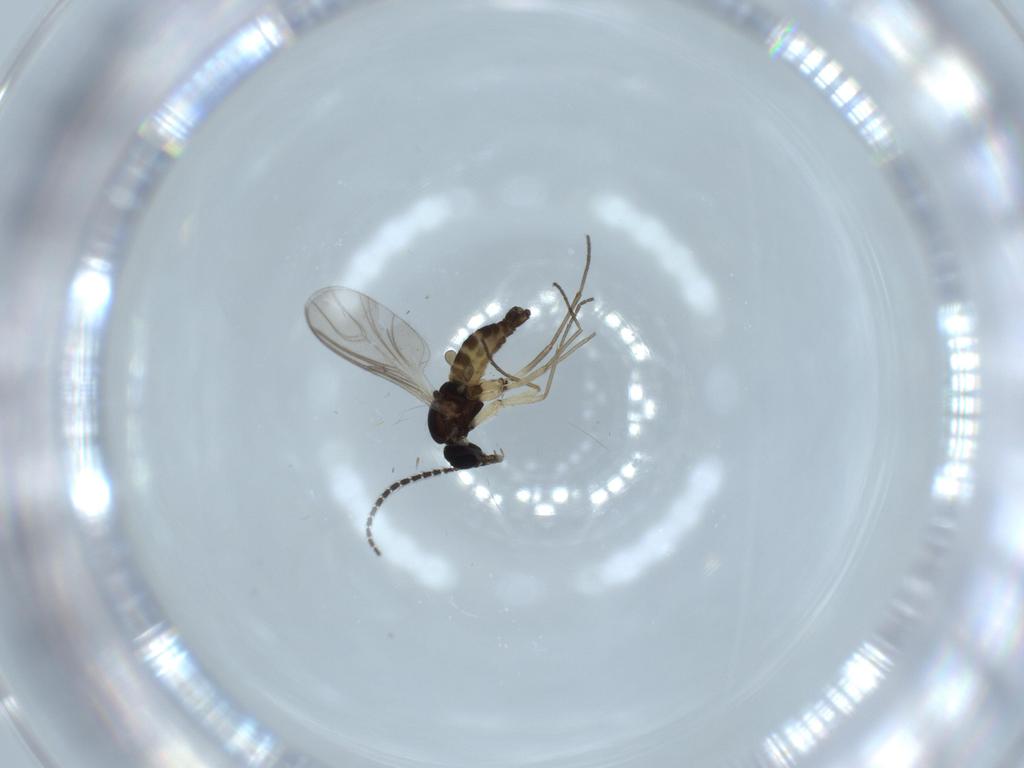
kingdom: Animalia
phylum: Arthropoda
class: Insecta
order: Diptera
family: Sciaridae
